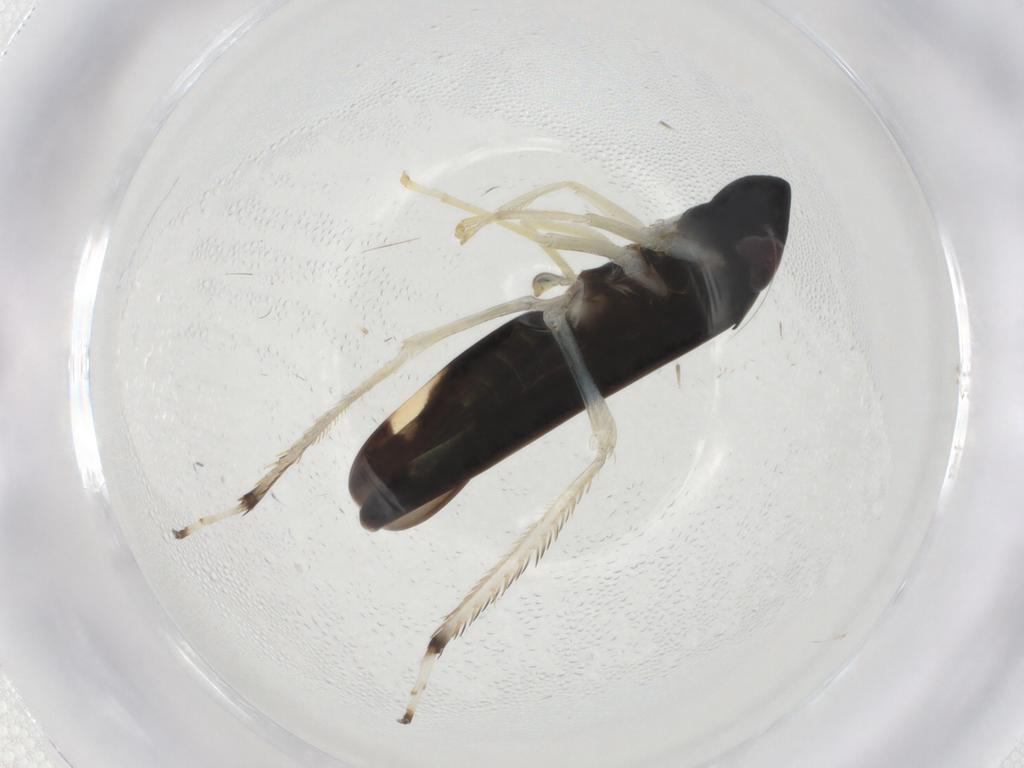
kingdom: Animalia
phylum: Arthropoda
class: Insecta
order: Hemiptera
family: Cicadellidae
